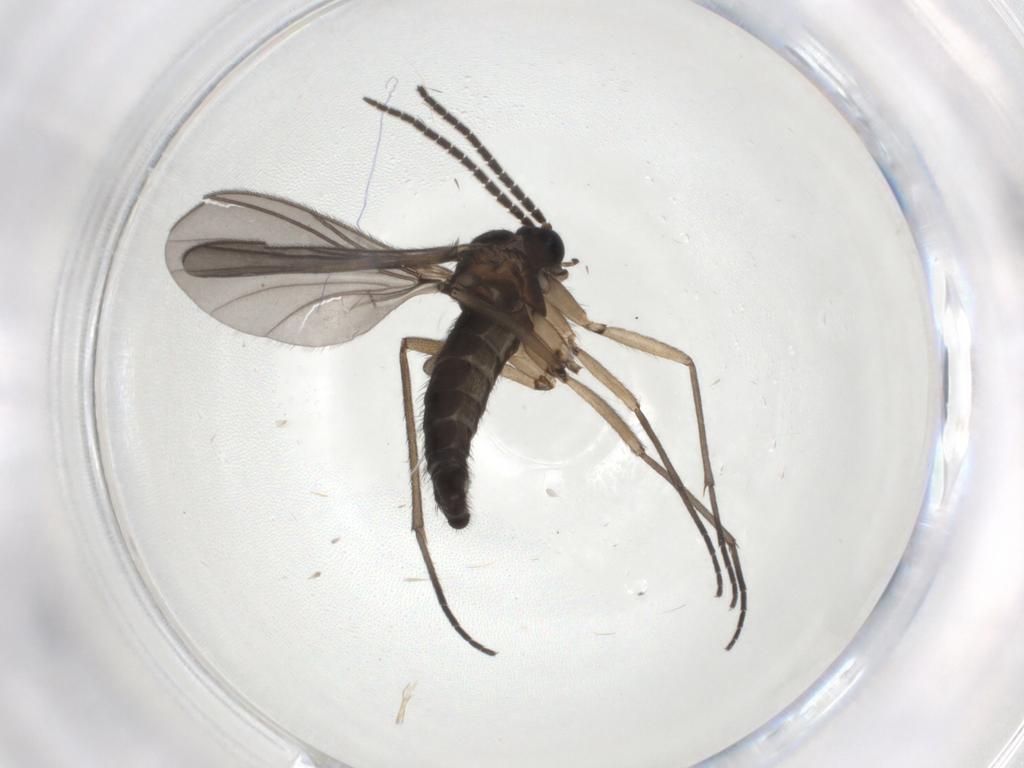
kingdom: Animalia
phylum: Arthropoda
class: Insecta
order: Diptera
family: Sciaridae
